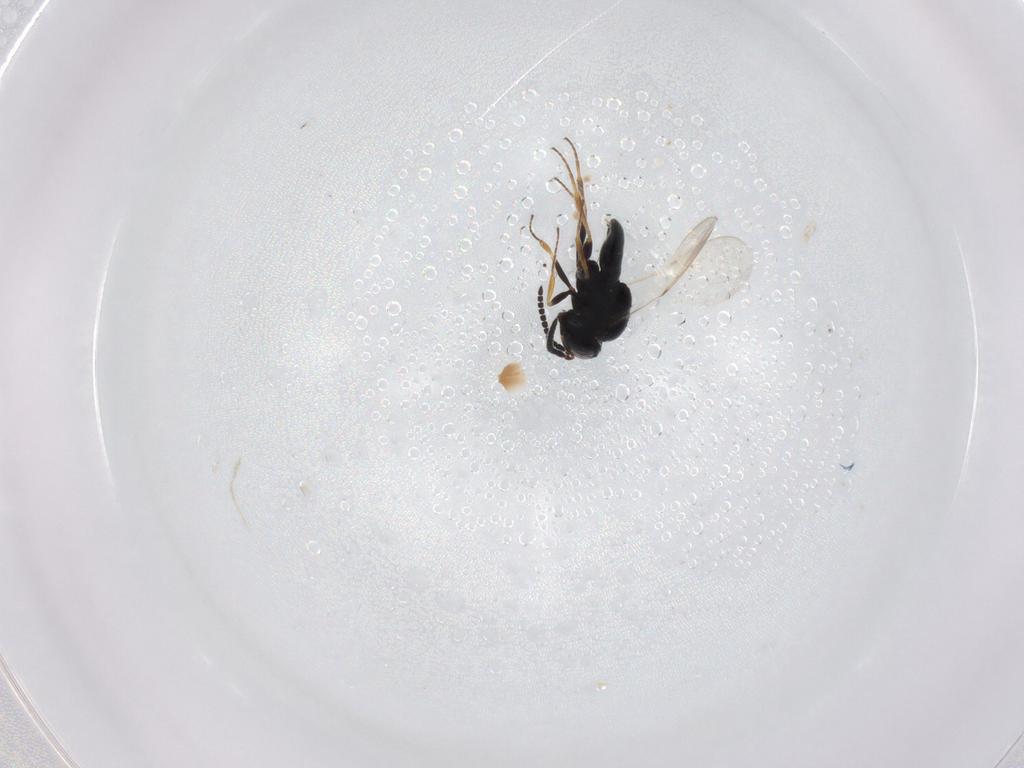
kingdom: Animalia
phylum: Arthropoda
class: Insecta
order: Hymenoptera
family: Scelionidae
